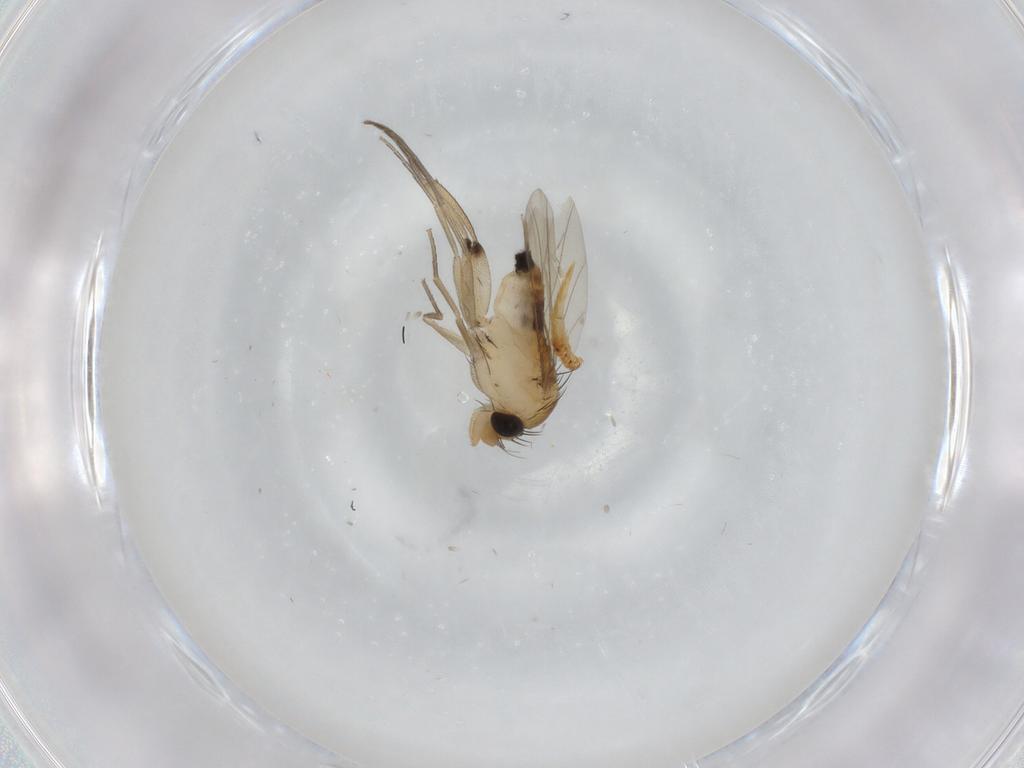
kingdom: Animalia
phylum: Arthropoda
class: Insecta
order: Diptera
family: Phoridae
